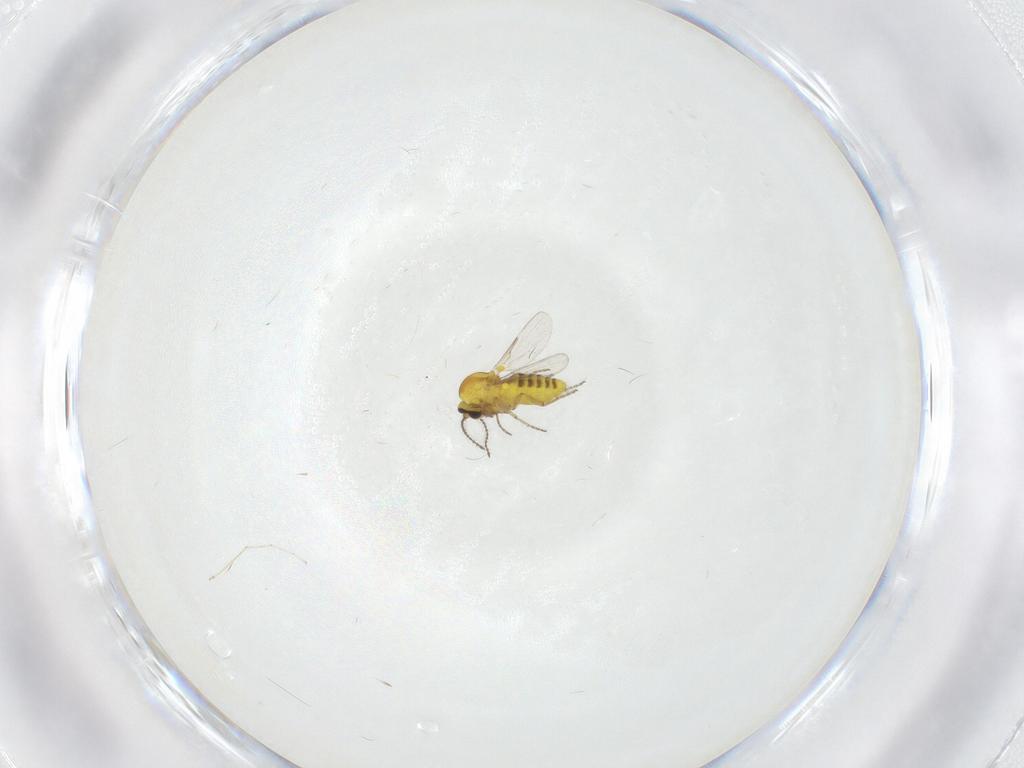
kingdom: Animalia
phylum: Arthropoda
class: Insecta
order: Diptera
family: Ceratopogonidae
